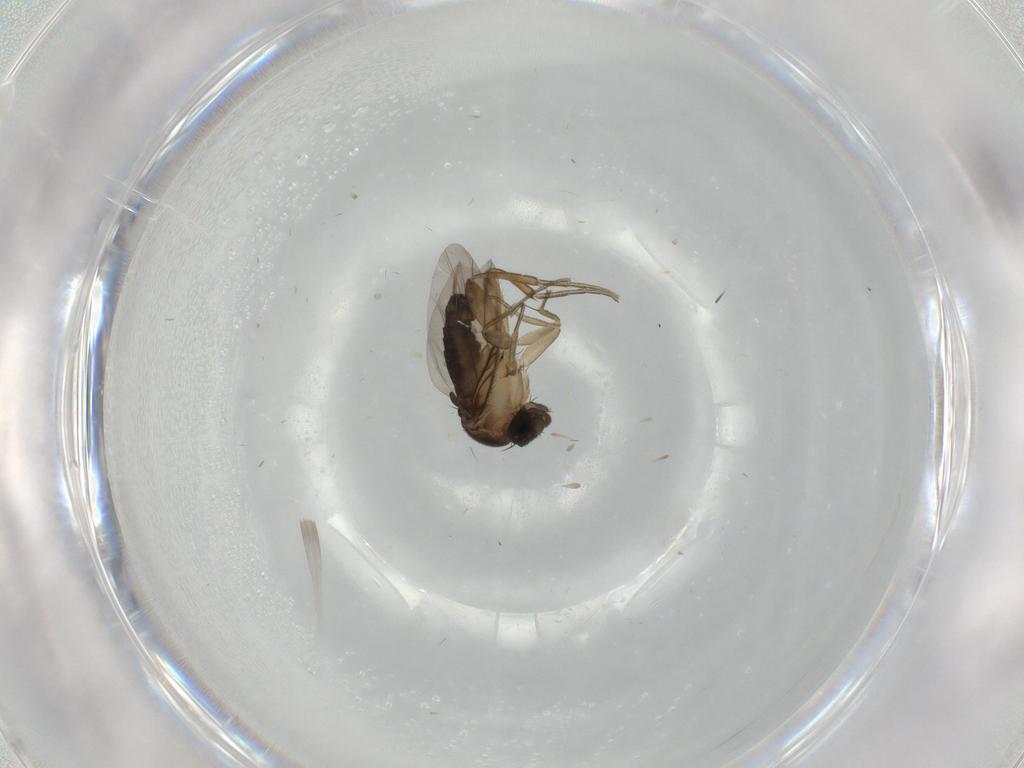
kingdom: Animalia
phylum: Arthropoda
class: Insecta
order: Diptera
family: Phoridae
